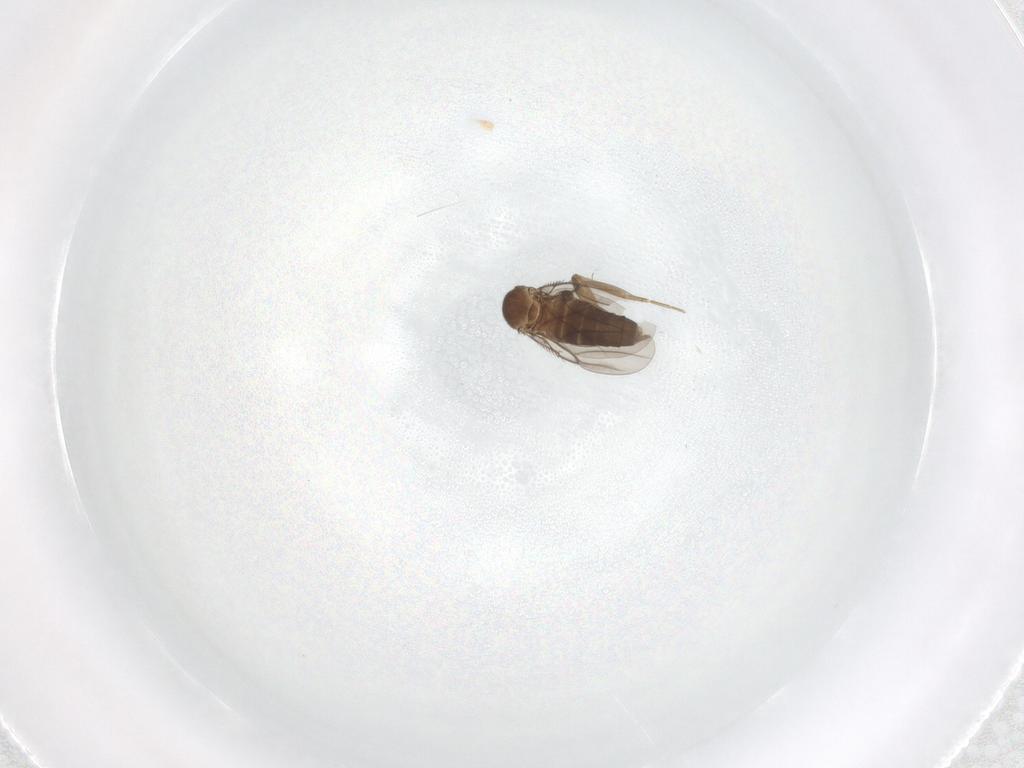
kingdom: Animalia
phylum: Arthropoda
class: Insecta
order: Diptera
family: Phoridae
